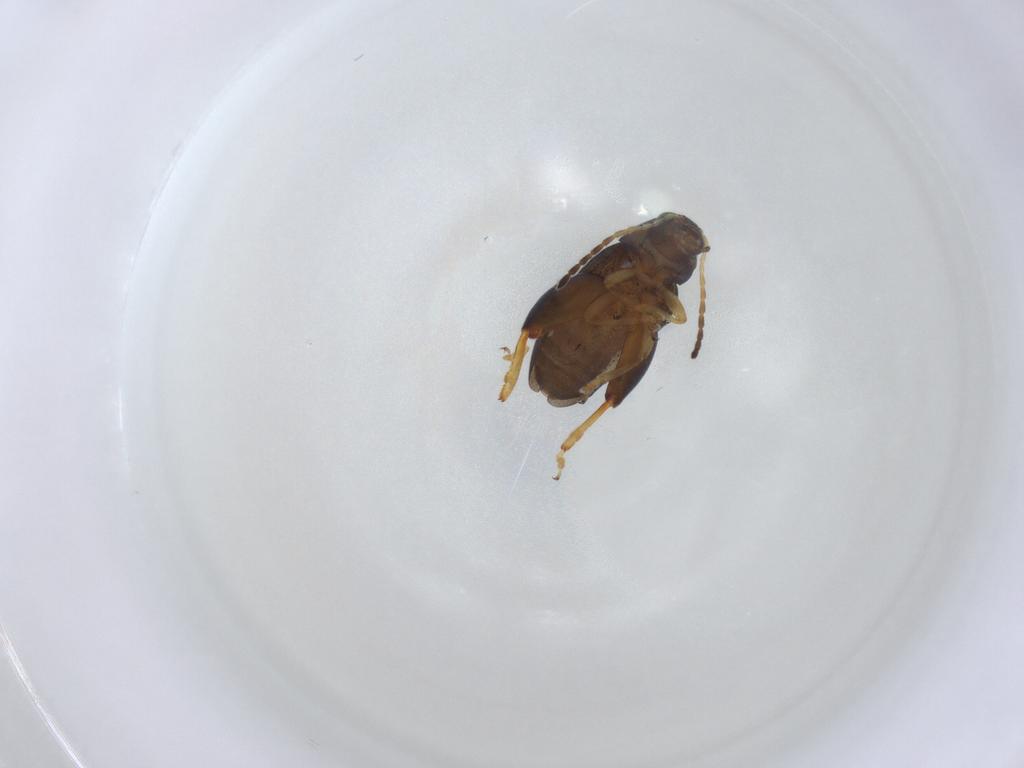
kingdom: Animalia
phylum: Arthropoda
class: Insecta
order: Coleoptera
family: Chrysomelidae
